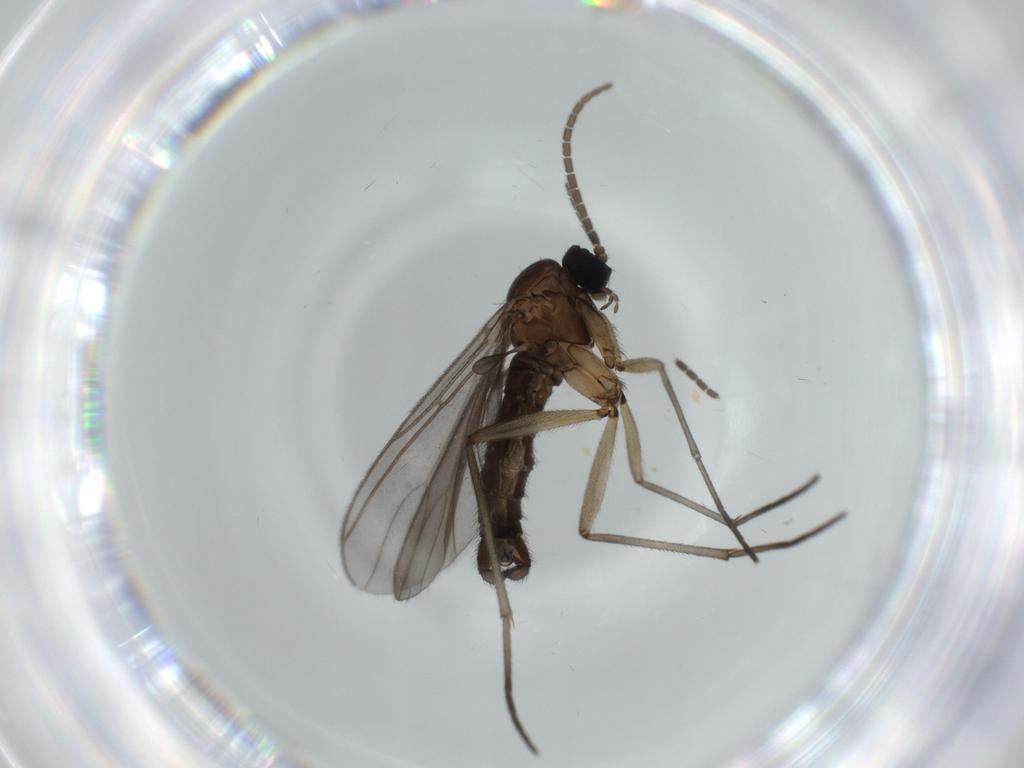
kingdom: Animalia
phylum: Arthropoda
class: Insecta
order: Diptera
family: Sciaridae
